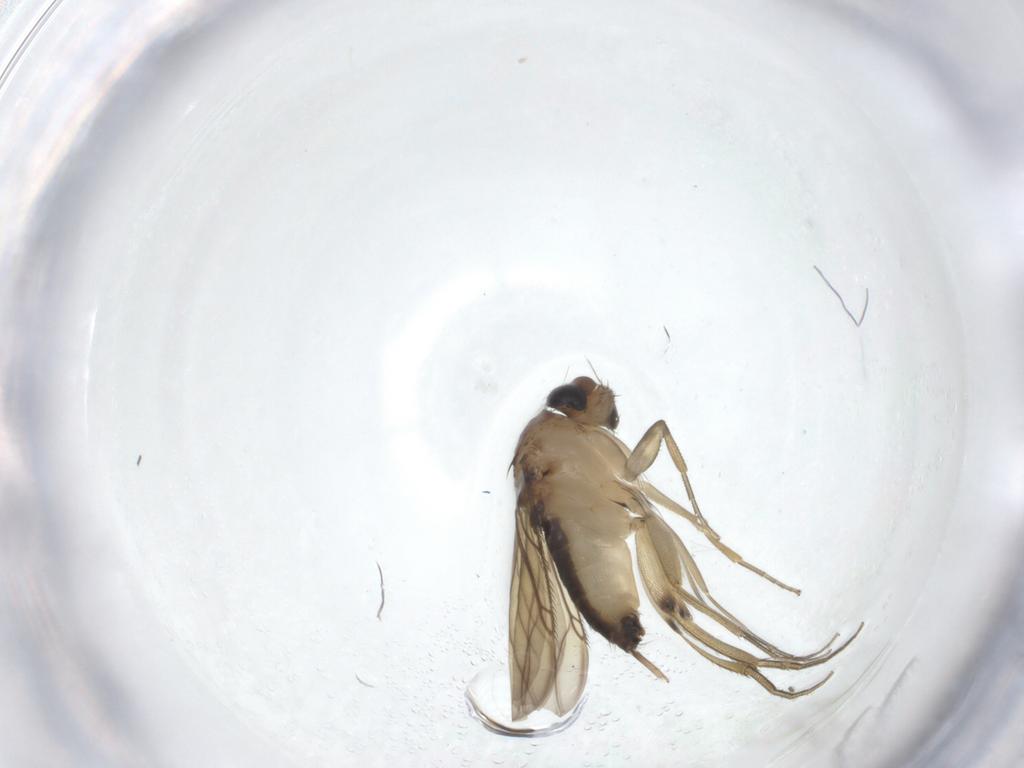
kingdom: Animalia
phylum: Arthropoda
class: Insecta
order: Diptera
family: Phoridae
